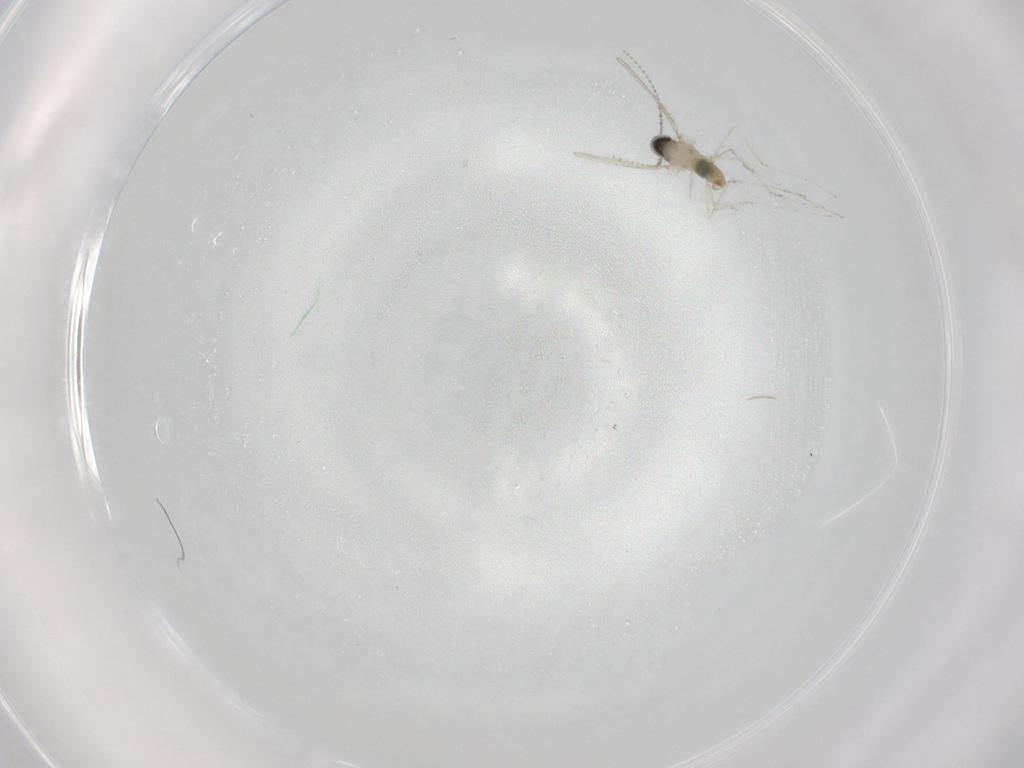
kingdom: Animalia
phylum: Arthropoda
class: Insecta
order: Diptera
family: Cecidomyiidae
